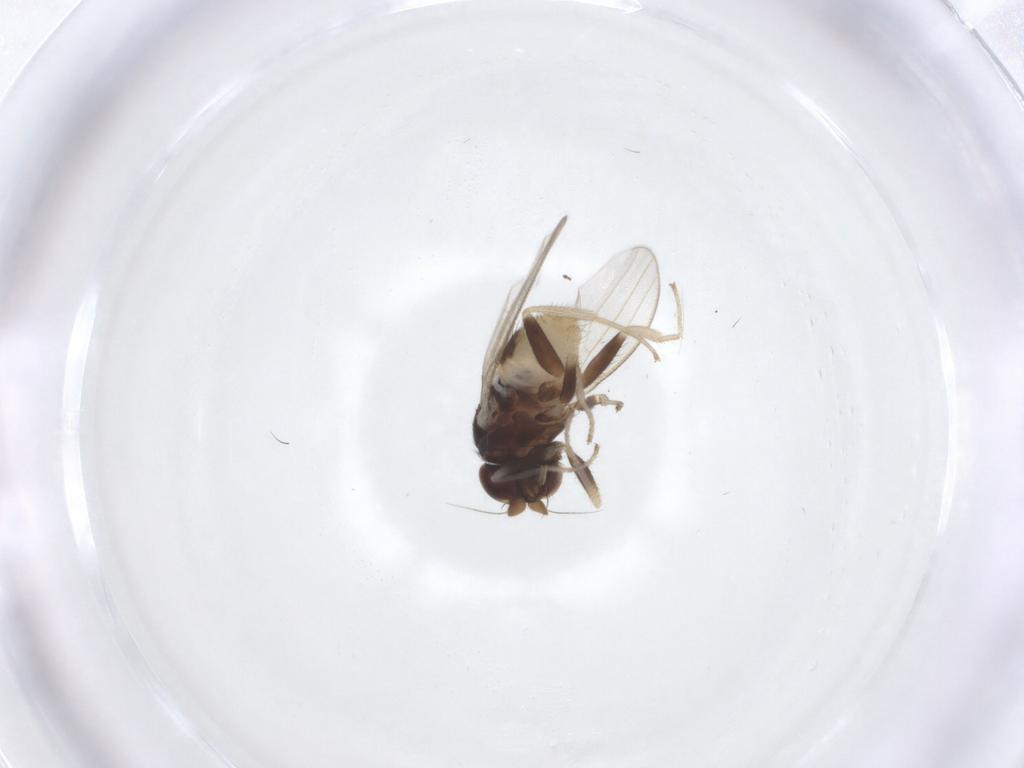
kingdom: Animalia
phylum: Arthropoda
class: Insecta
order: Diptera
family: Milichiidae
